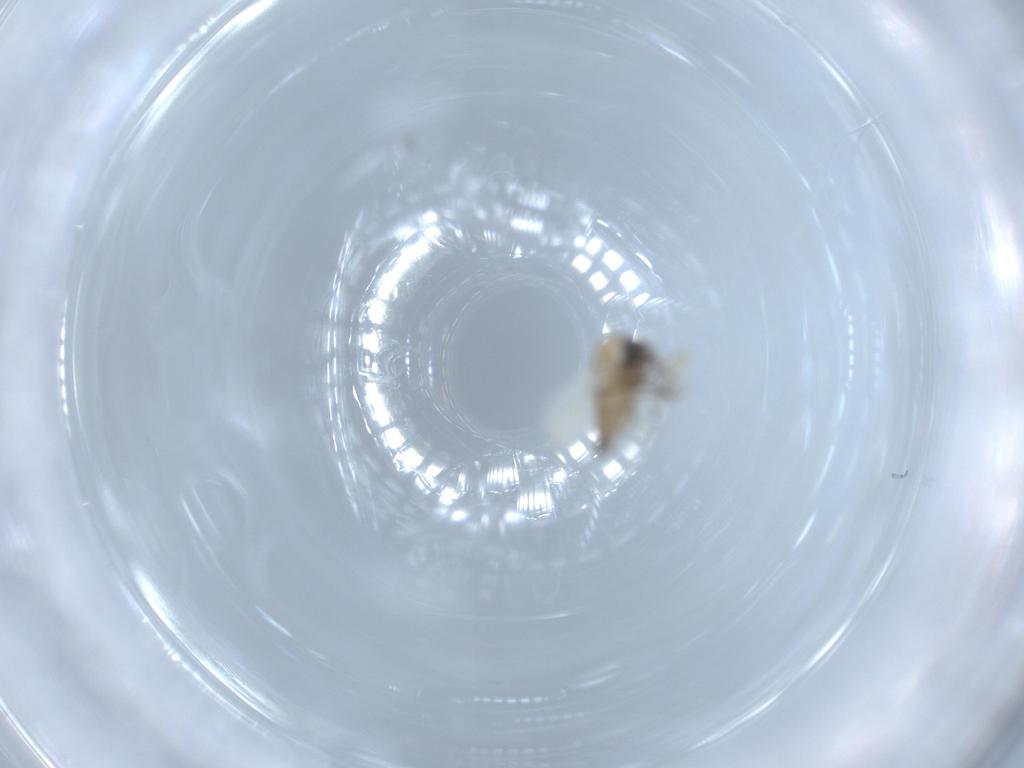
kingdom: Animalia
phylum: Arthropoda
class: Insecta
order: Diptera
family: Ceratopogonidae
